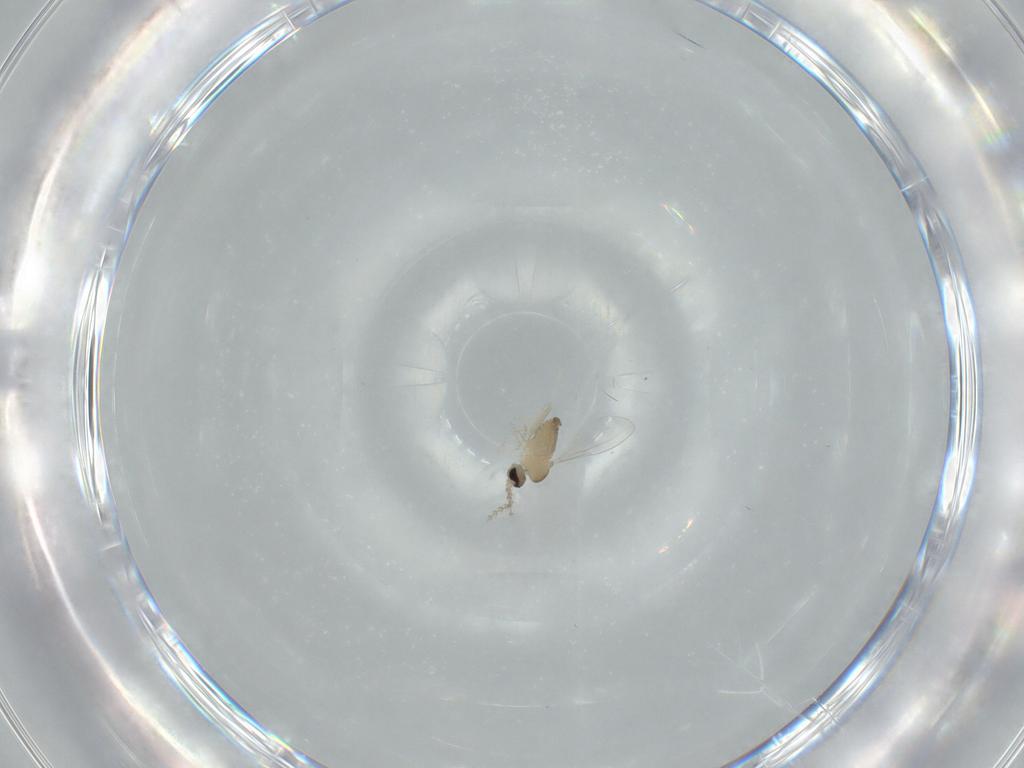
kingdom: Animalia
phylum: Arthropoda
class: Insecta
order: Diptera
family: Cecidomyiidae
